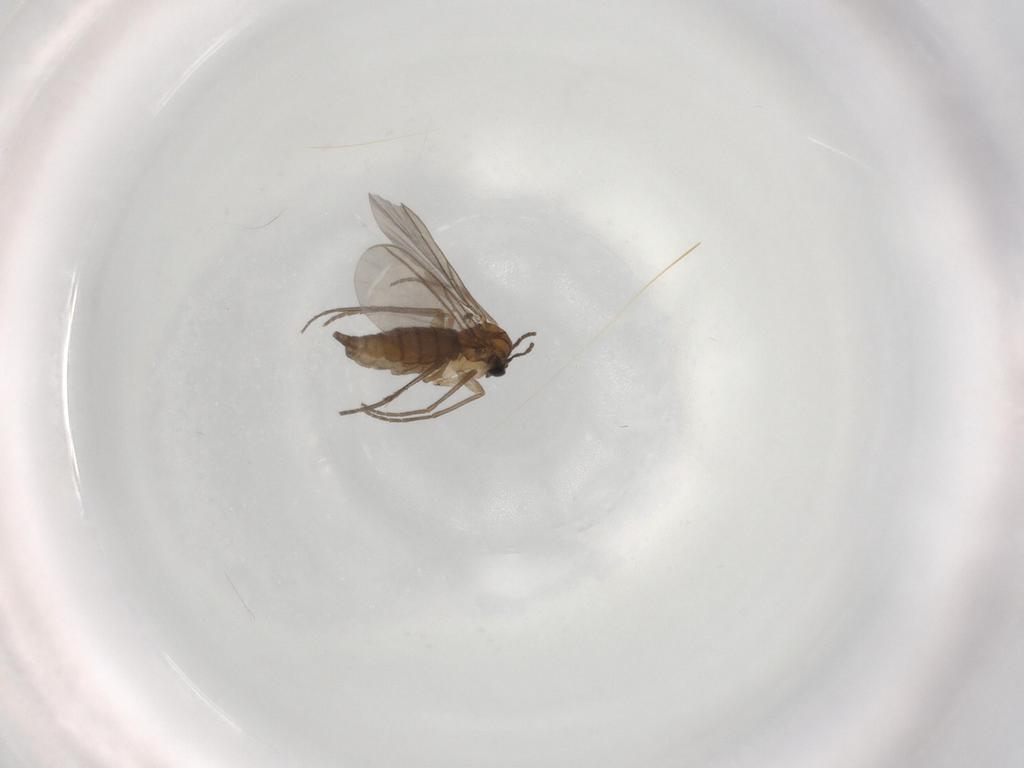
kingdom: Animalia
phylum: Arthropoda
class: Insecta
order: Diptera
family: Sciaridae
